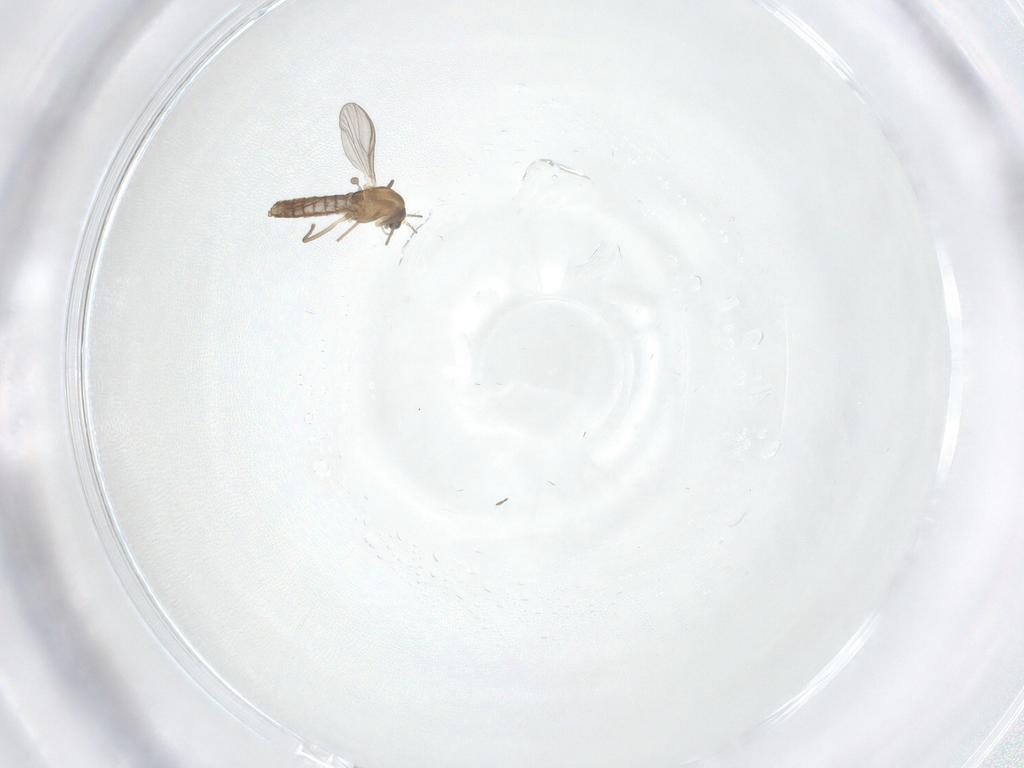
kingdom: Animalia
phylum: Arthropoda
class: Insecta
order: Diptera
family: Chironomidae
